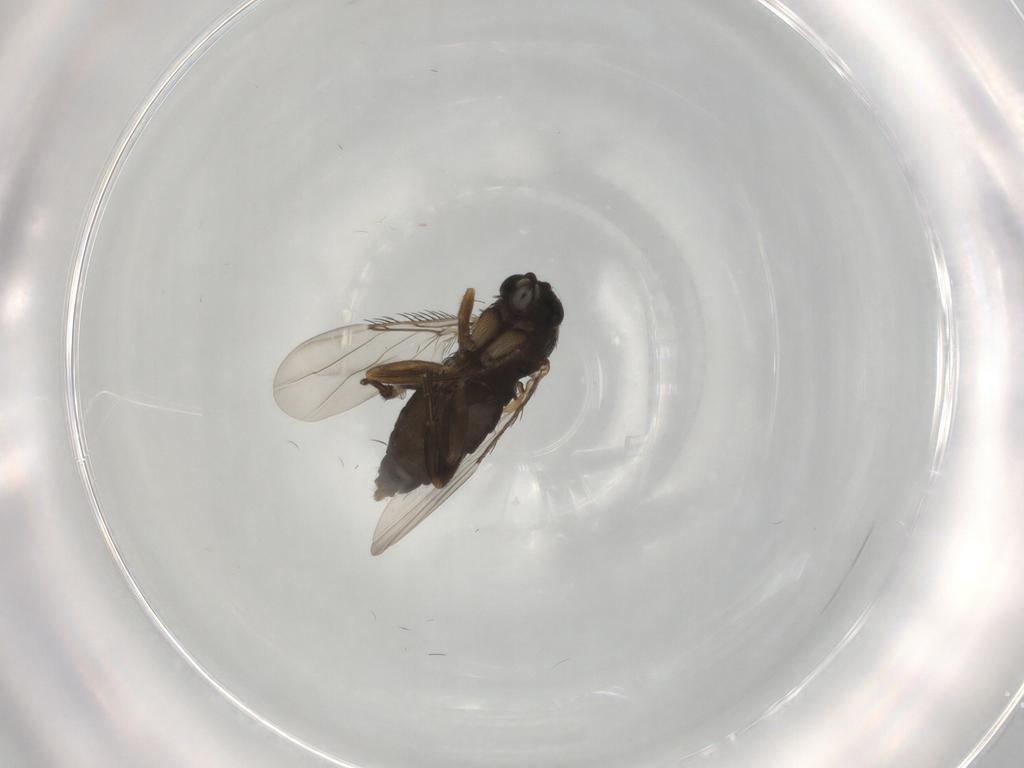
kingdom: Animalia
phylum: Arthropoda
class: Insecta
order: Diptera
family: Phoridae
